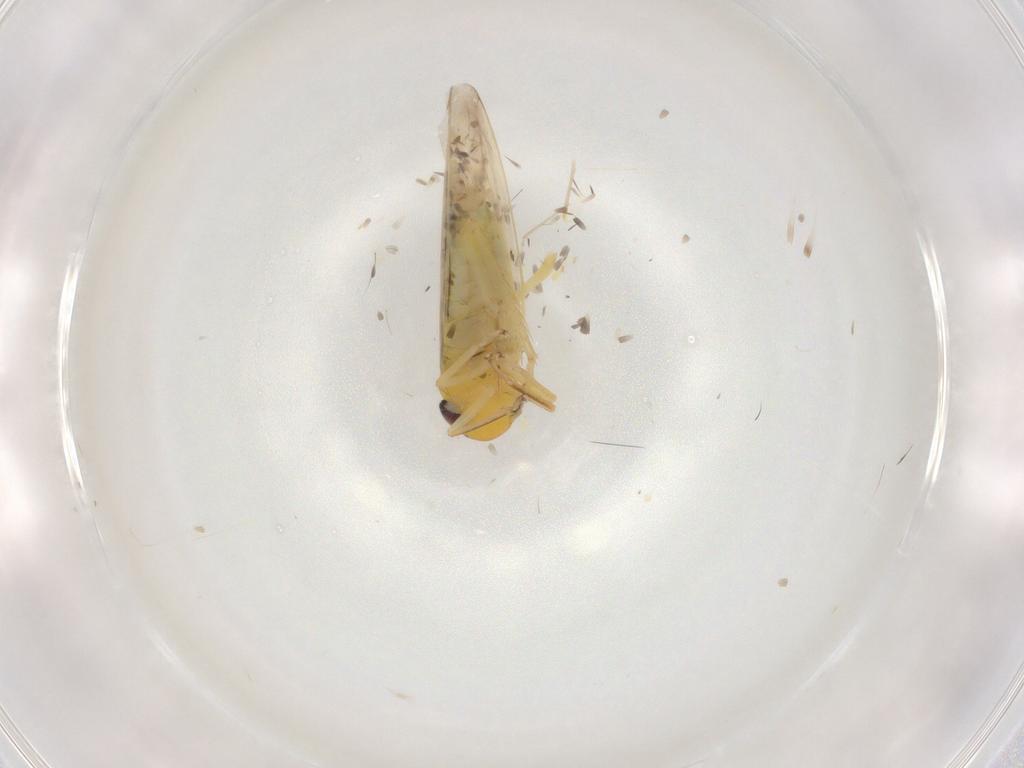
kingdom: Animalia
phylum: Arthropoda
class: Insecta
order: Hemiptera
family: Cicadellidae
